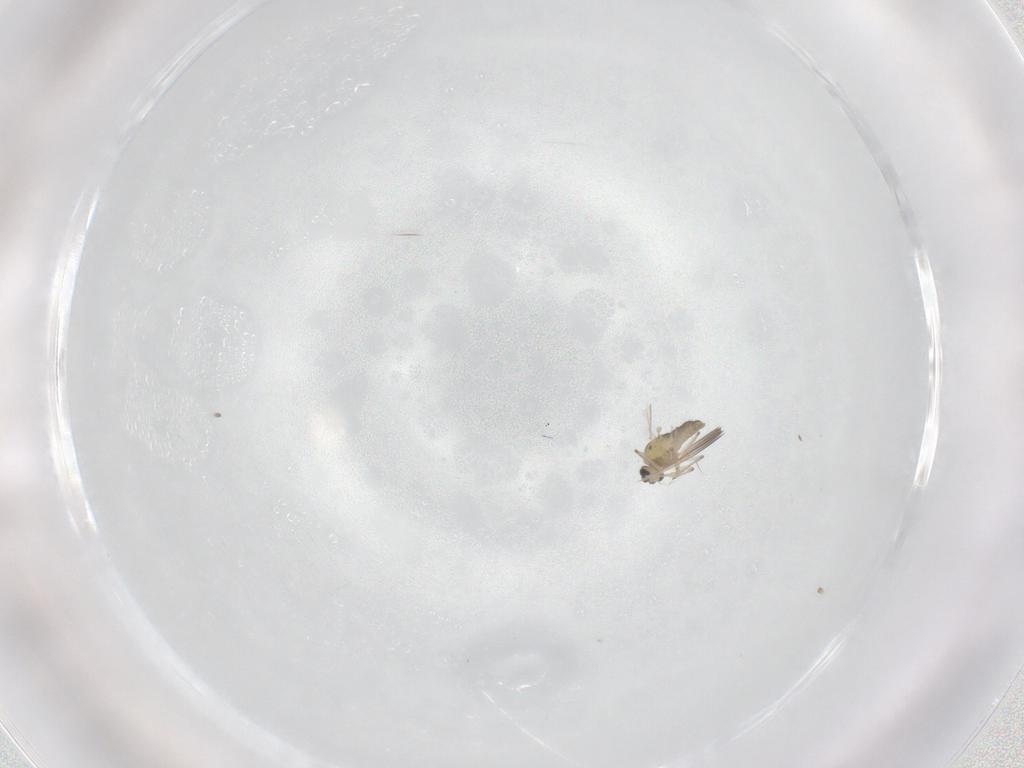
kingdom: Animalia
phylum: Arthropoda
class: Insecta
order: Diptera
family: Chironomidae
